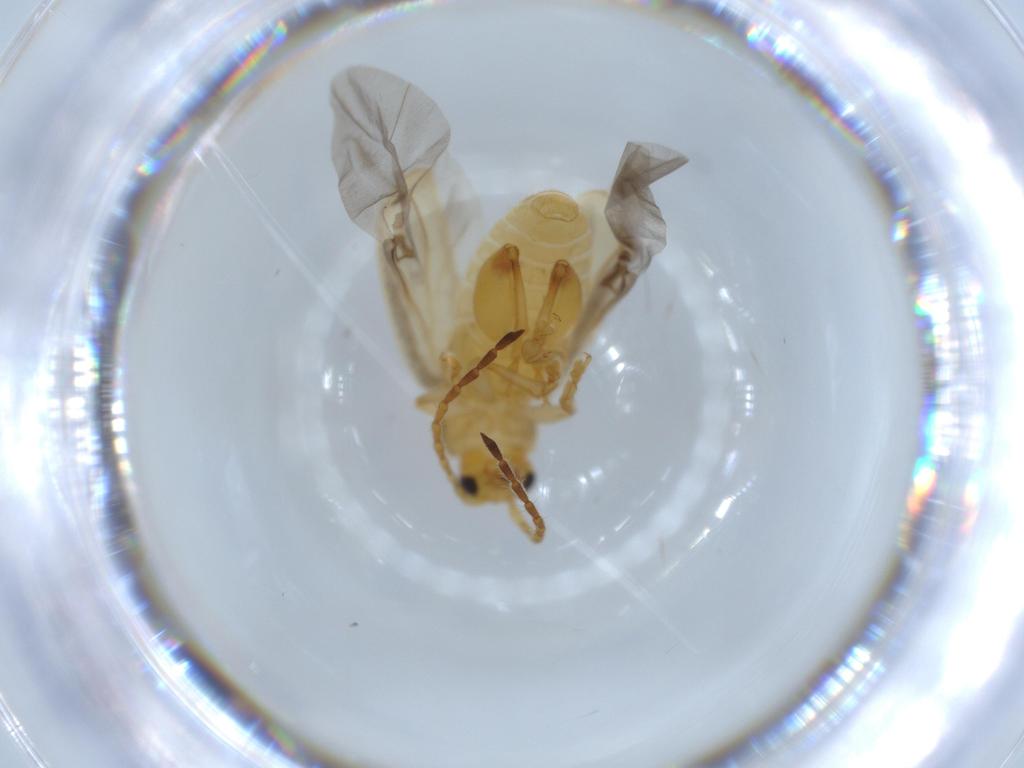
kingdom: Animalia
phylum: Arthropoda
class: Insecta
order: Coleoptera
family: Chrysomelidae
